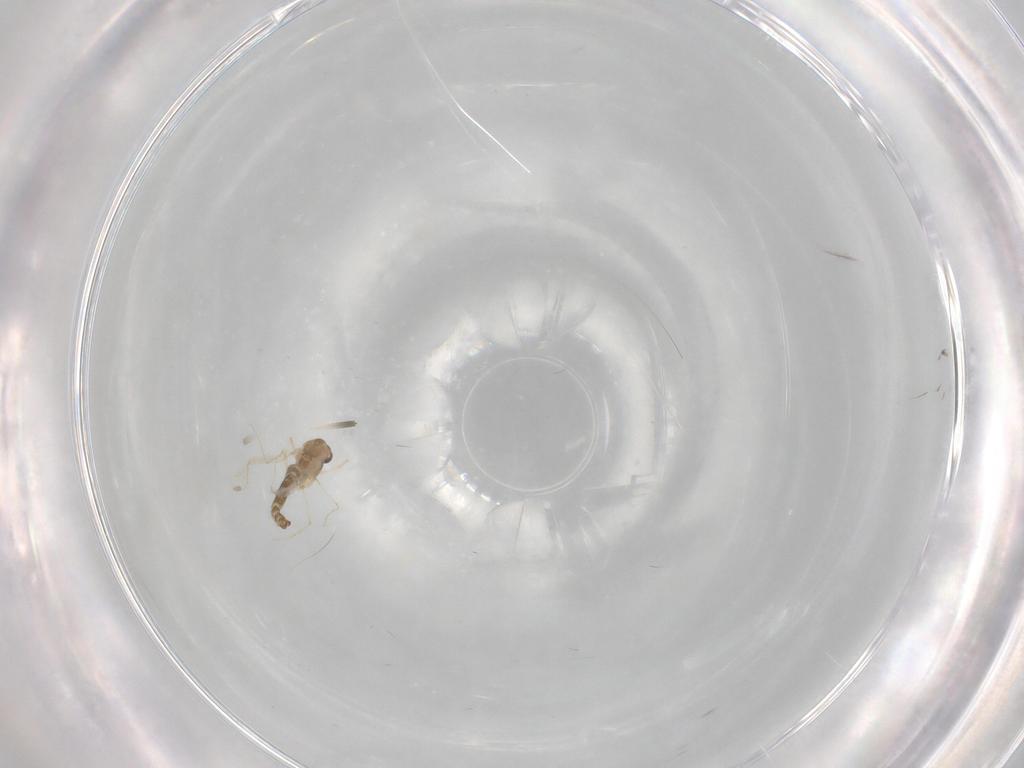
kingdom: Animalia
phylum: Arthropoda
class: Insecta
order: Diptera
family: Chironomidae
